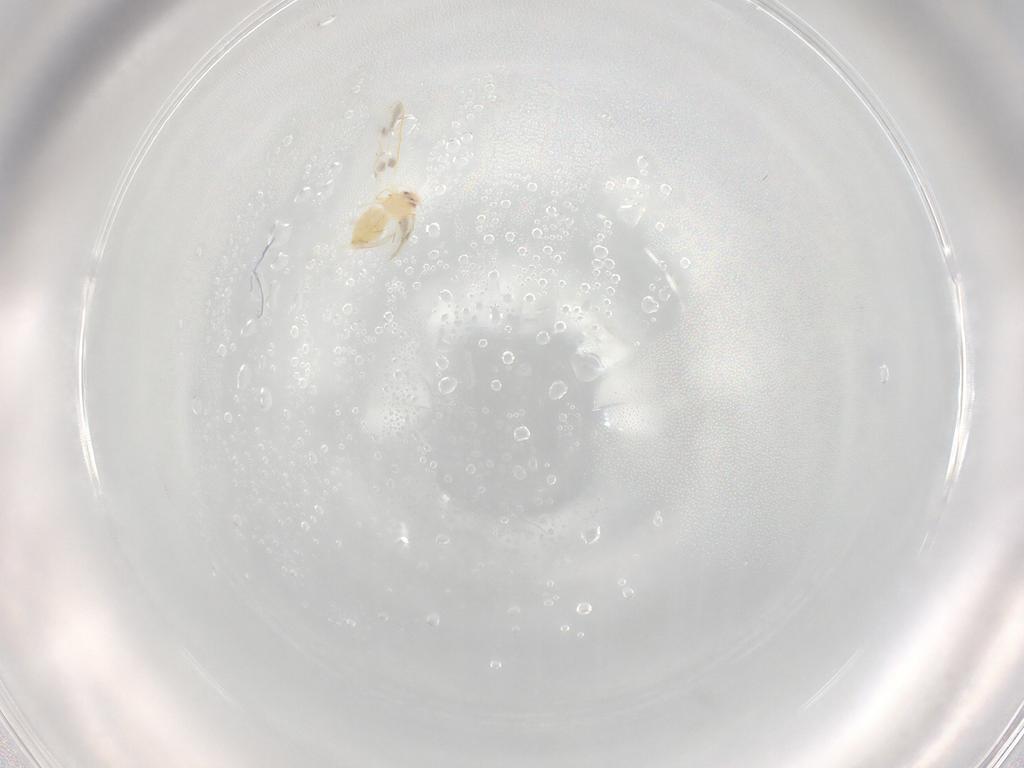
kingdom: Animalia
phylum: Arthropoda
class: Insecta
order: Hemiptera
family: Aleyrodidae
